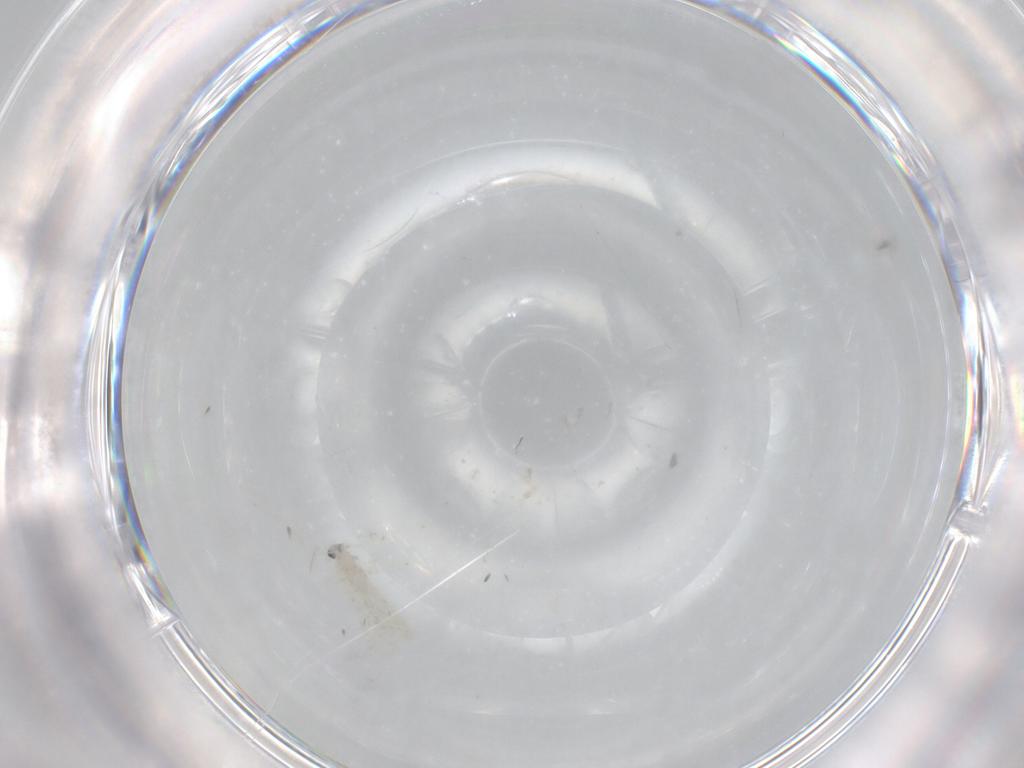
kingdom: Animalia
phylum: Arthropoda
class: Insecta
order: Diptera
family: Cecidomyiidae
